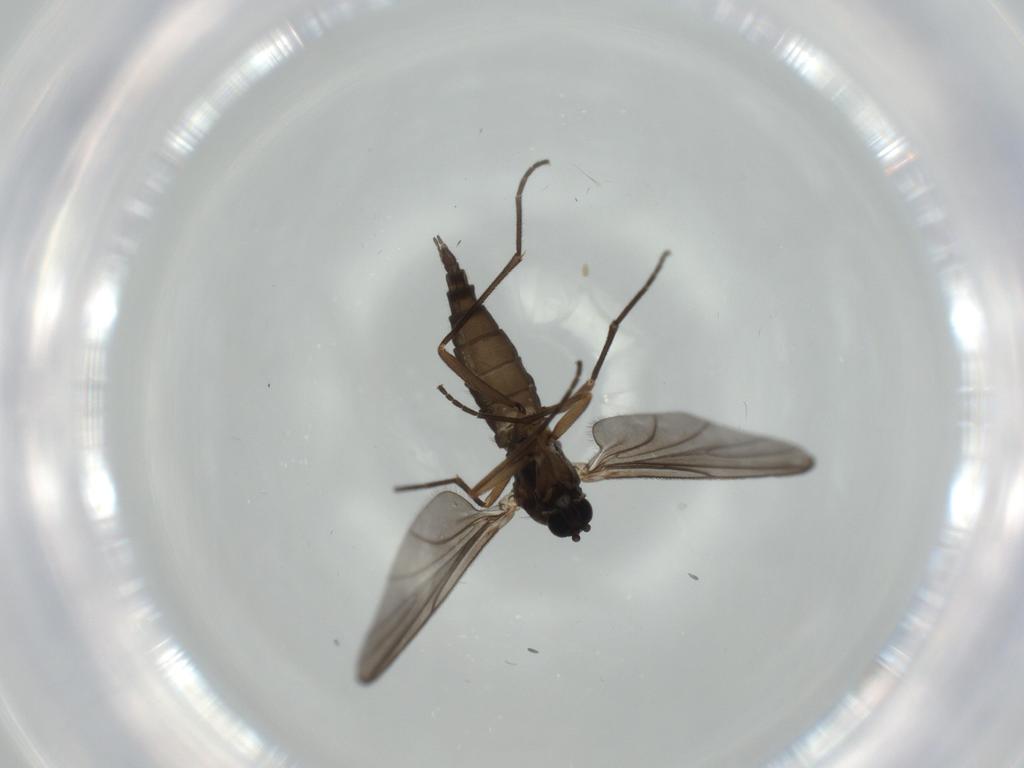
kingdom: Animalia
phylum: Arthropoda
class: Insecta
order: Diptera
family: Sciaridae
